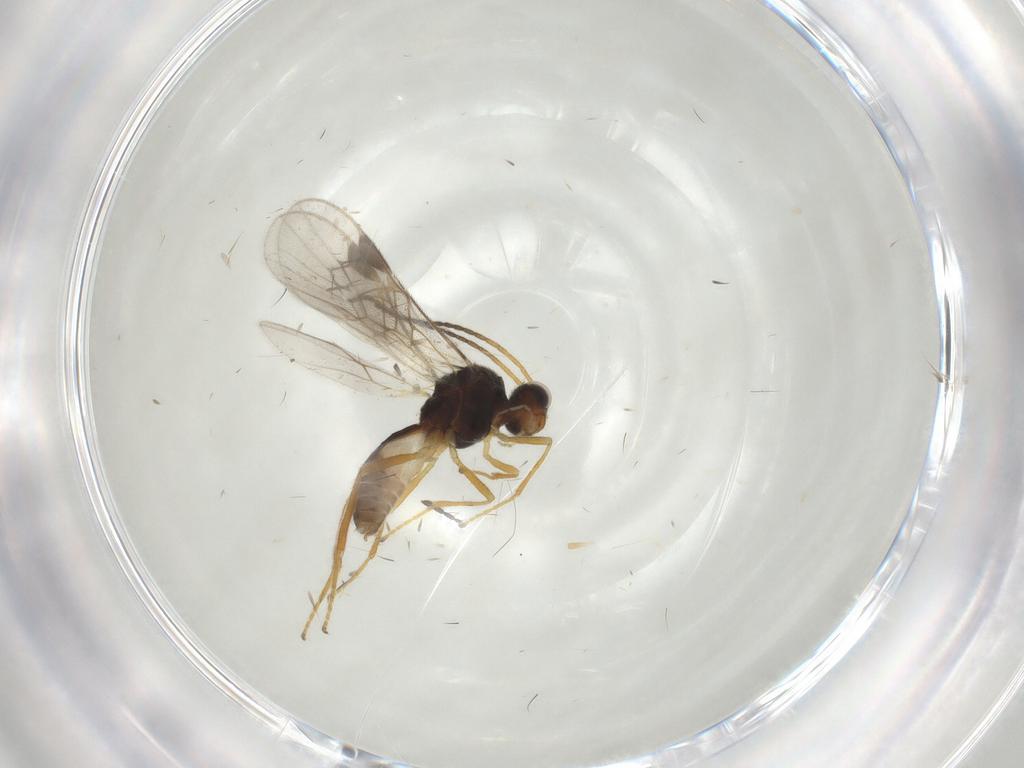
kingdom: Animalia
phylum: Arthropoda
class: Insecta
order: Hymenoptera
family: Braconidae
